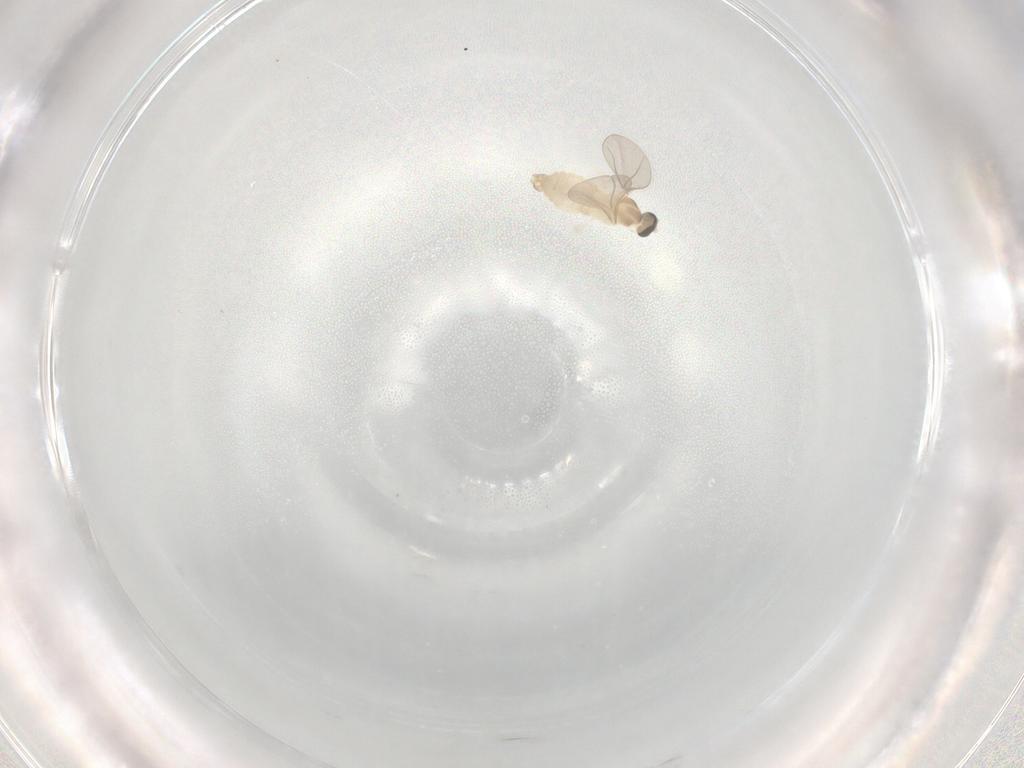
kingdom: Animalia
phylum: Arthropoda
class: Insecta
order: Diptera
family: Cecidomyiidae
